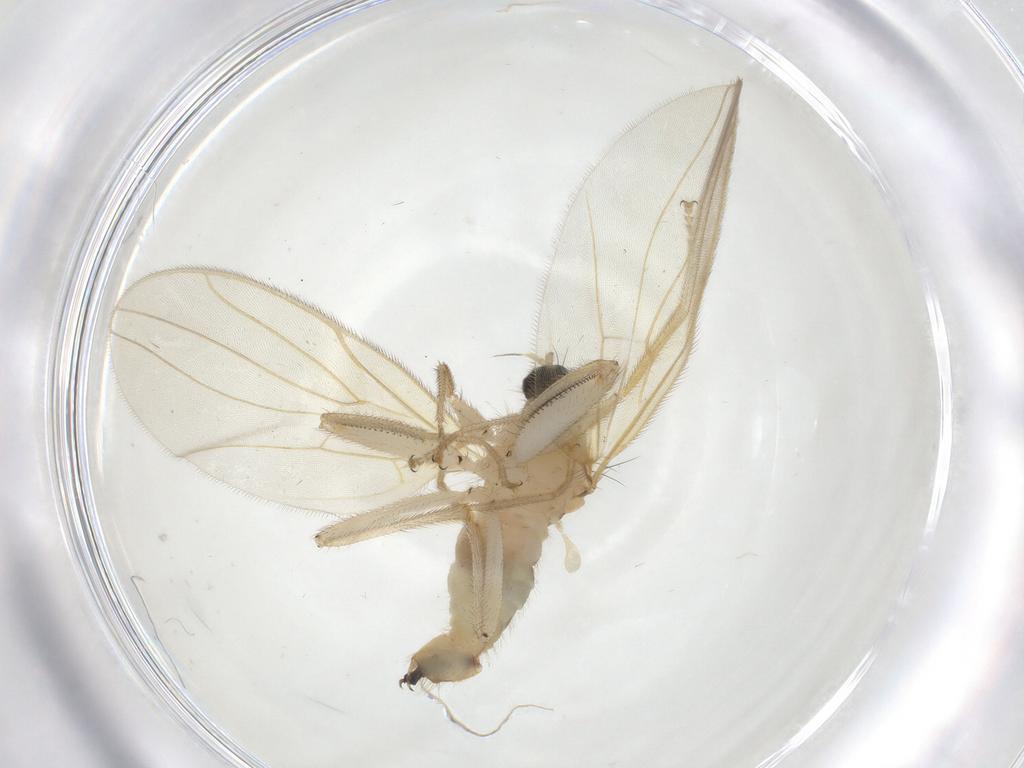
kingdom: Animalia
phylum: Arthropoda
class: Insecta
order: Diptera
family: Hybotidae
